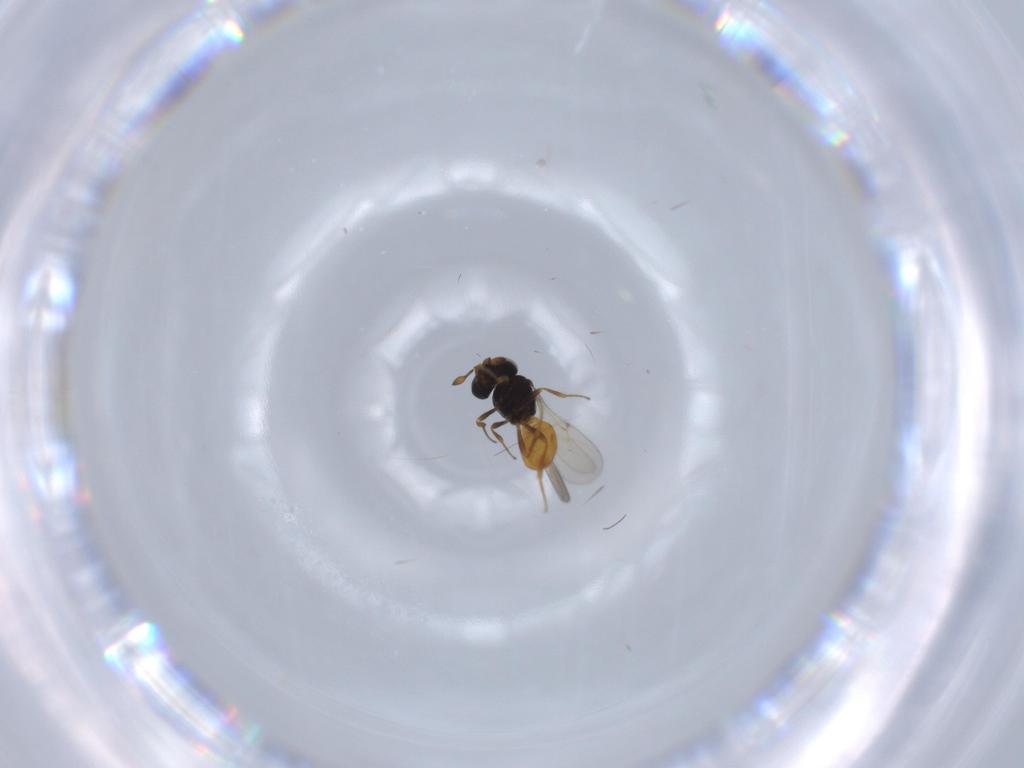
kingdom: Animalia
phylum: Arthropoda
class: Insecta
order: Hymenoptera
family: Scelionidae
